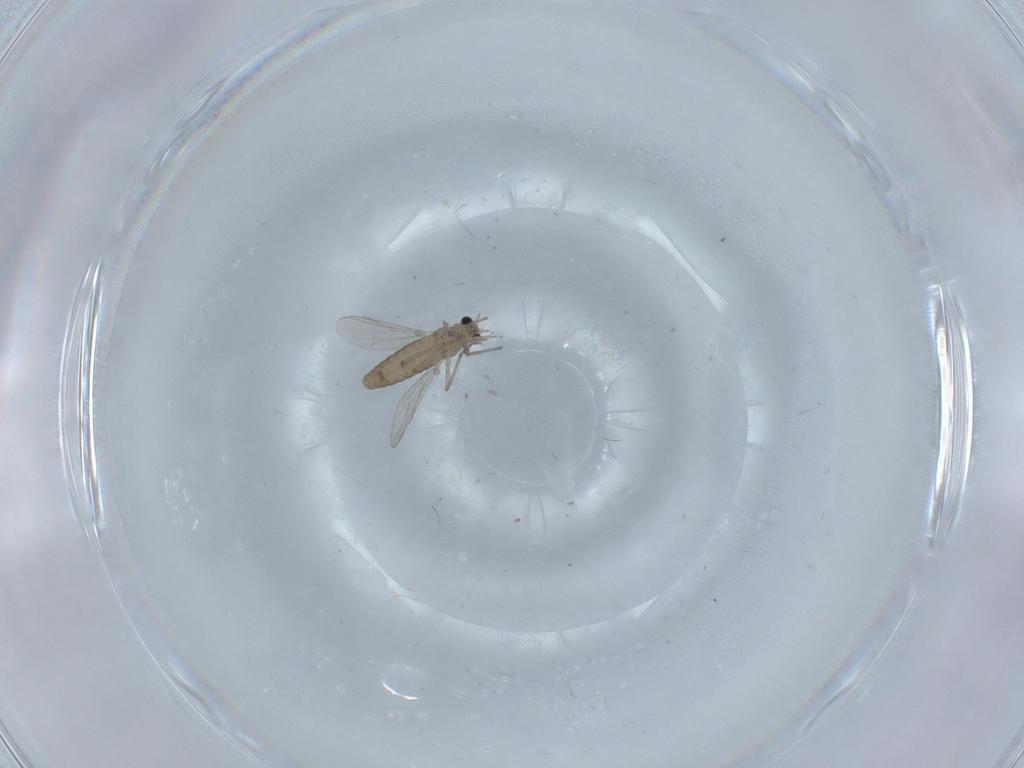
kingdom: Animalia
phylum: Arthropoda
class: Insecta
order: Diptera
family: Chironomidae
